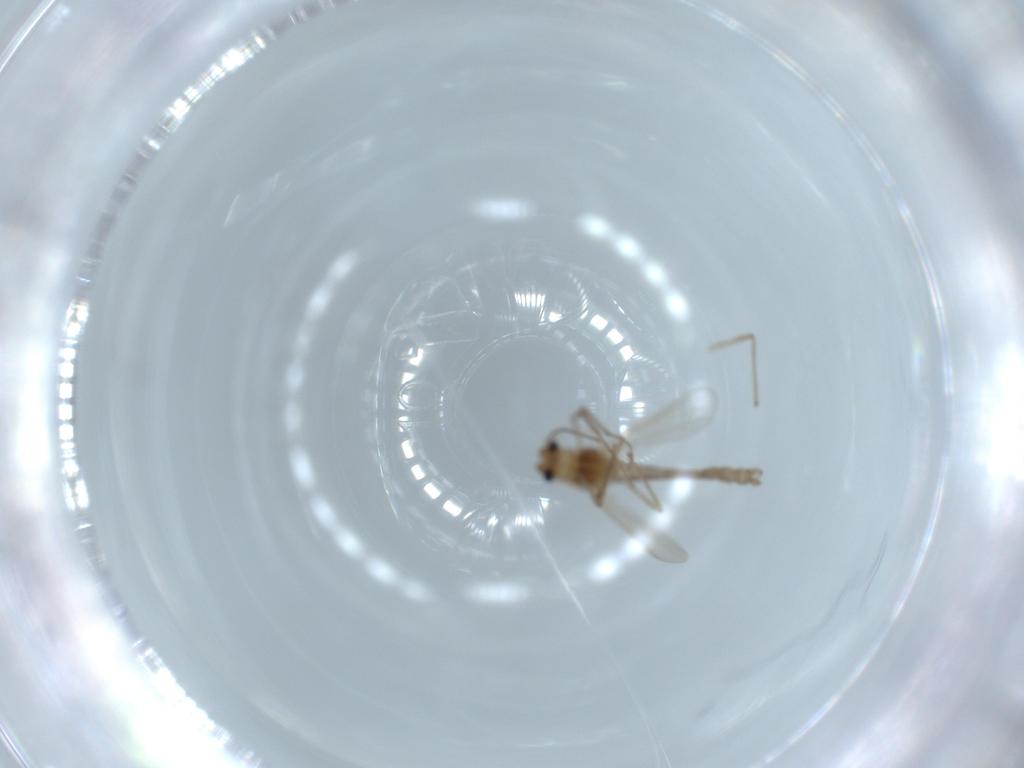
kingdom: Animalia
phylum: Arthropoda
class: Insecta
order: Diptera
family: Chironomidae
